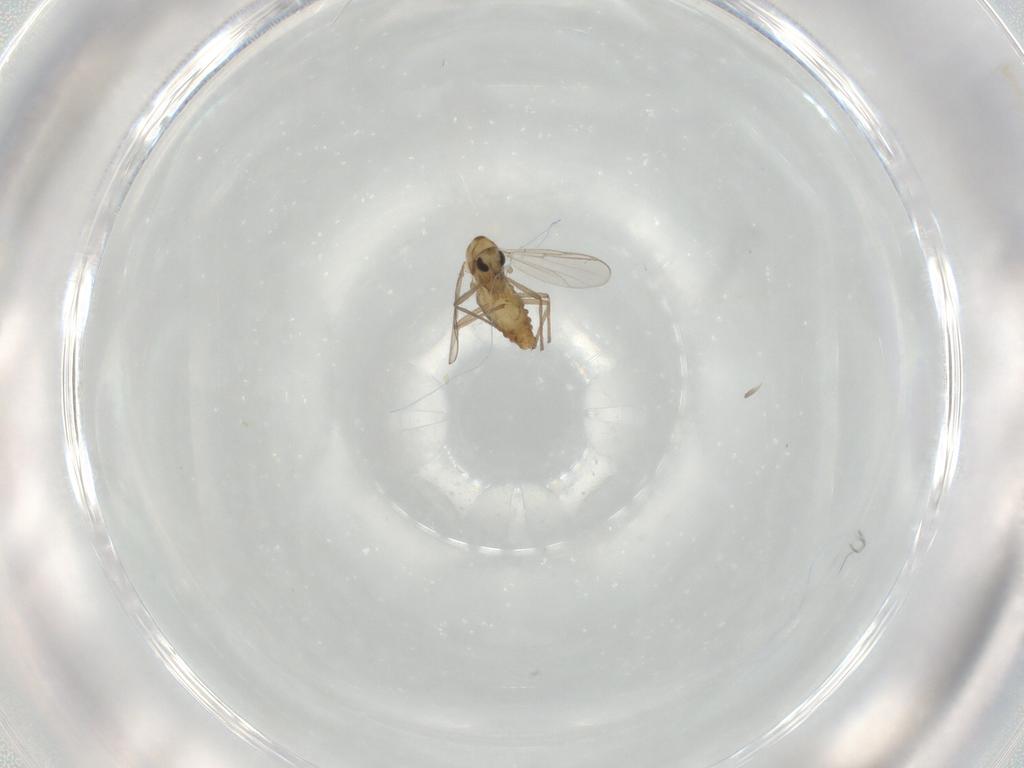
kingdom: Animalia
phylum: Arthropoda
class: Insecta
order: Diptera
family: Chironomidae
